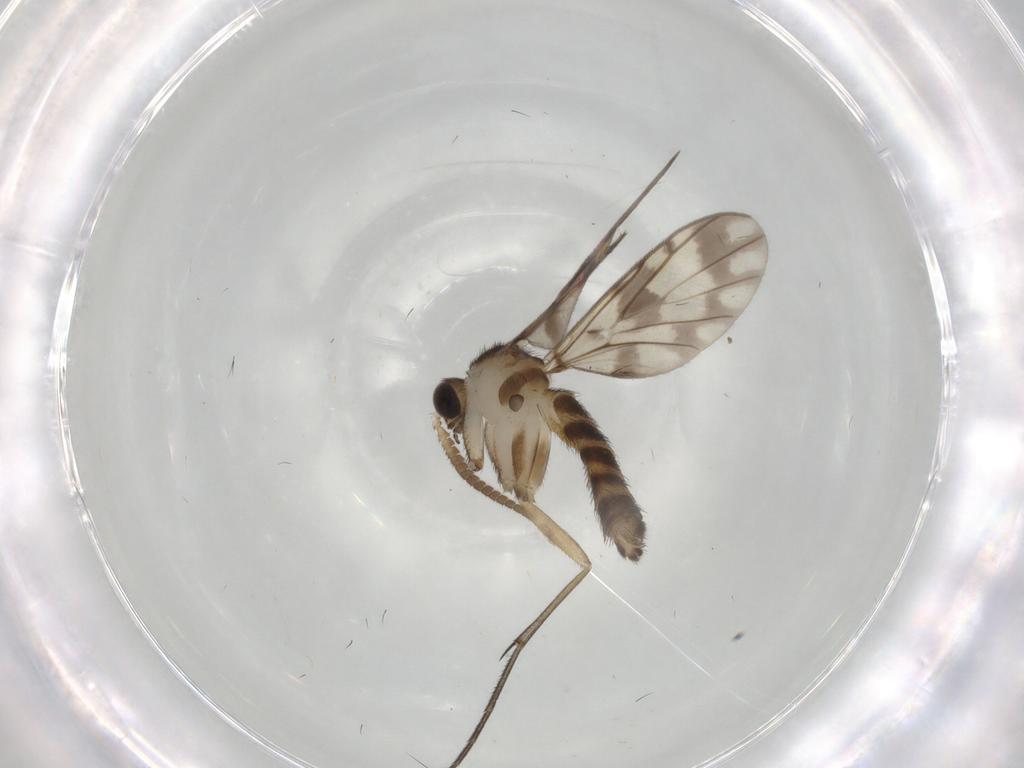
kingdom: Animalia
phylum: Arthropoda
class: Insecta
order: Diptera
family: Keroplatidae
